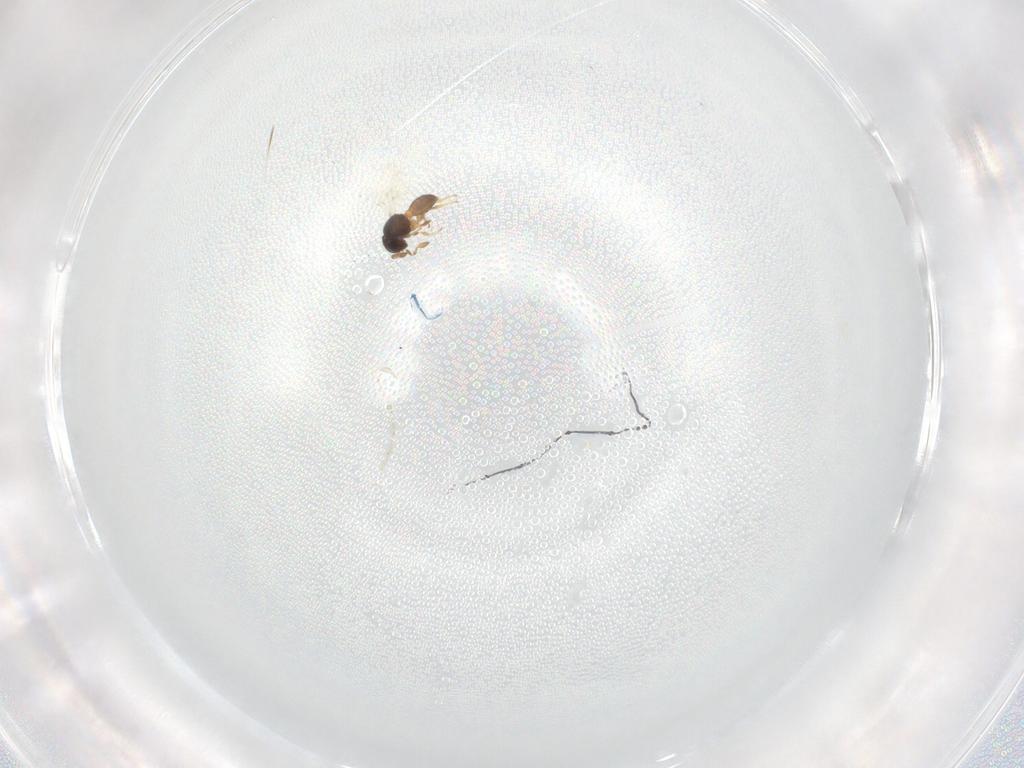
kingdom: Animalia
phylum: Arthropoda
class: Insecta
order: Hymenoptera
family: Scelionidae
